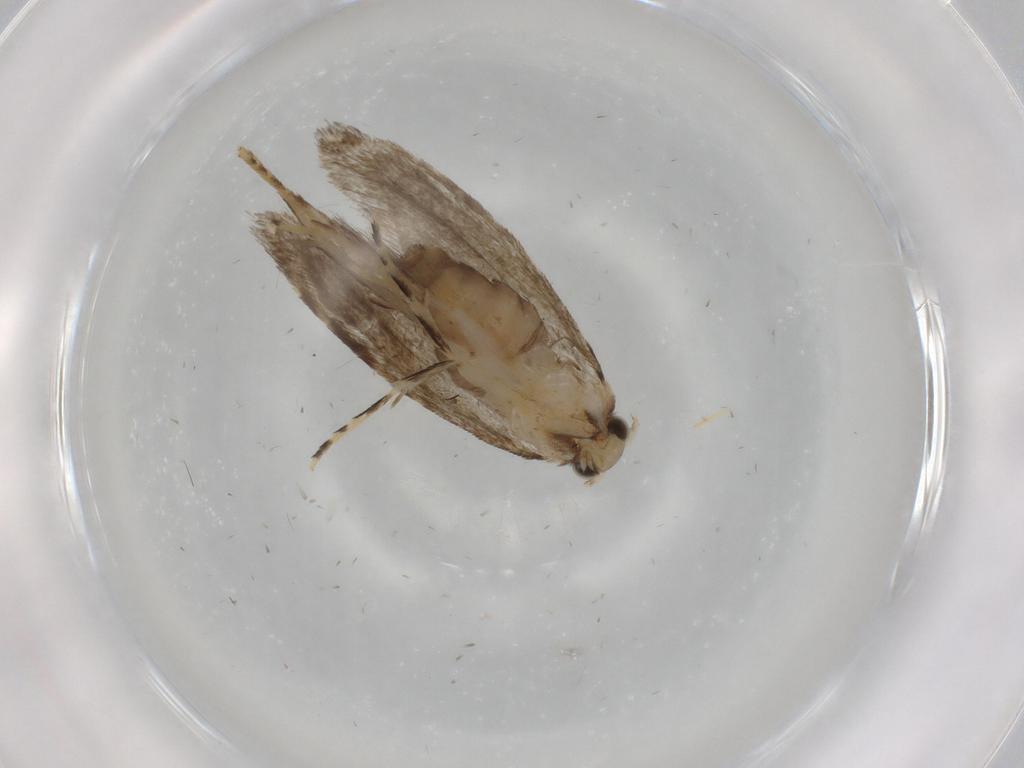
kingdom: Animalia
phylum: Arthropoda
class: Insecta
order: Lepidoptera
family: Tineidae
